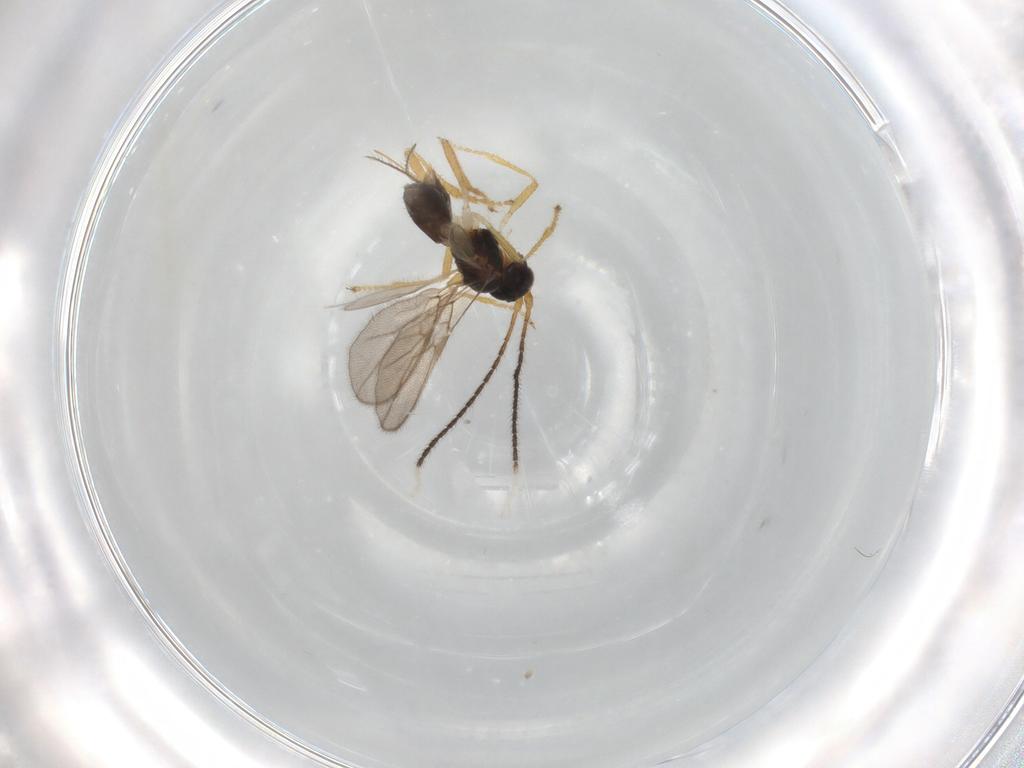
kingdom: Animalia
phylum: Arthropoda
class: Insecta
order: Hymenoptera
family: Braconidae
